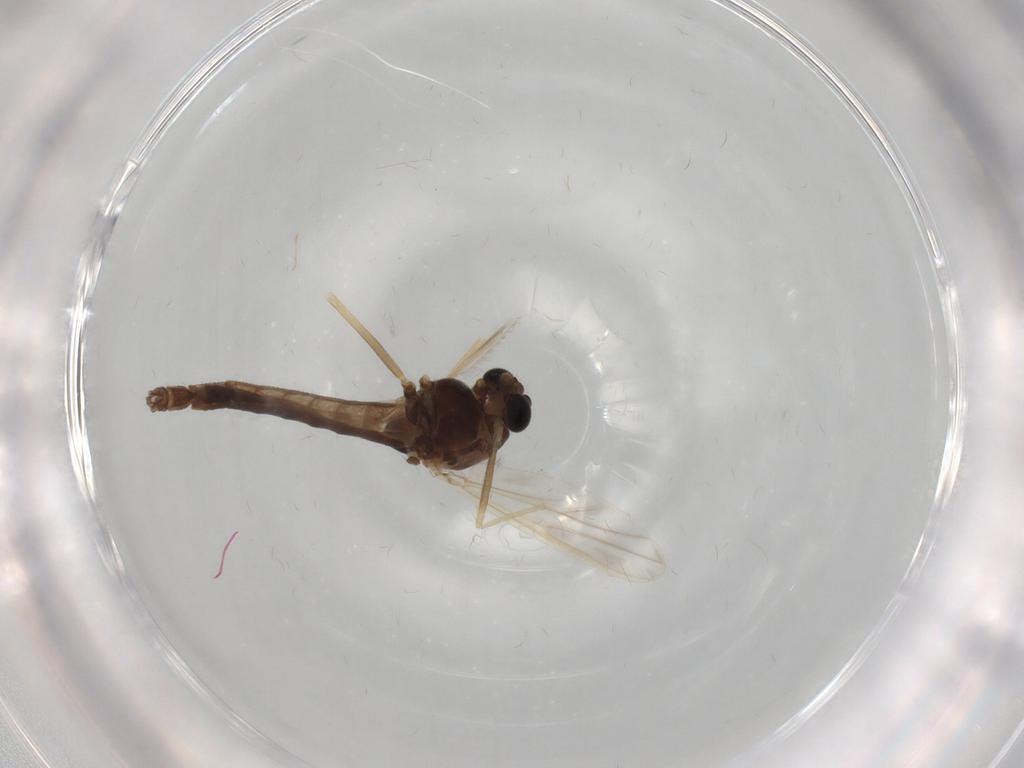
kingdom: Animalia
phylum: Arthropoda
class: Insecta
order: Diptera
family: Chironomidae
